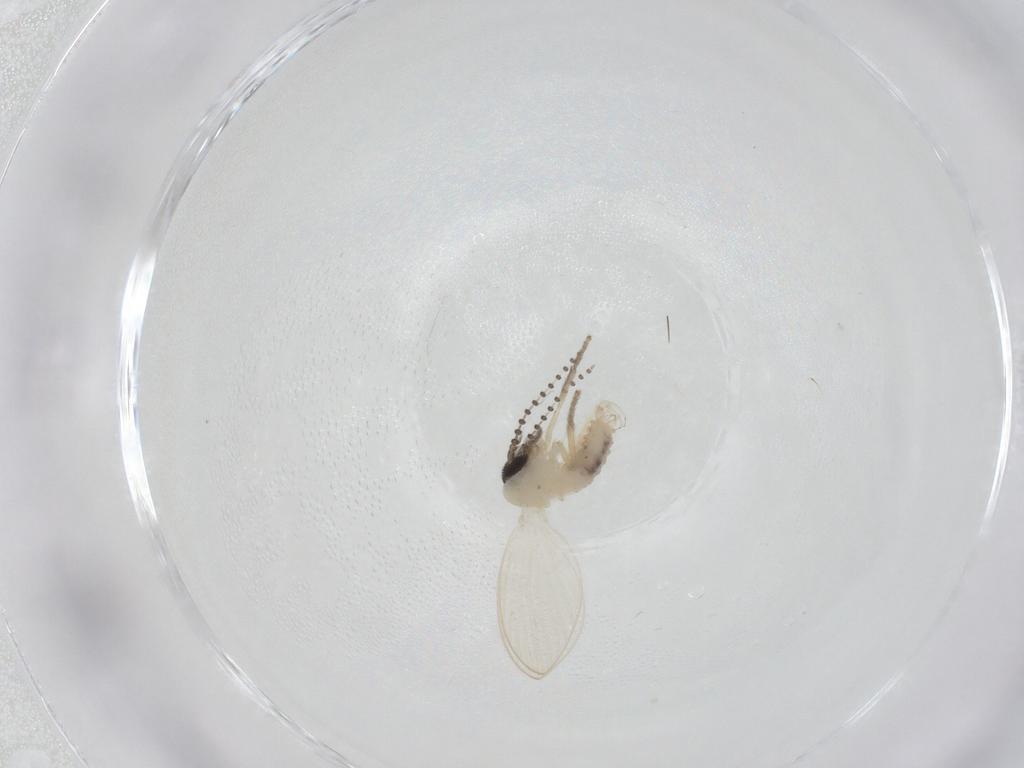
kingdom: Animalia
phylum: Arthropoda
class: Insecta
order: Diptera
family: Psychodidae
